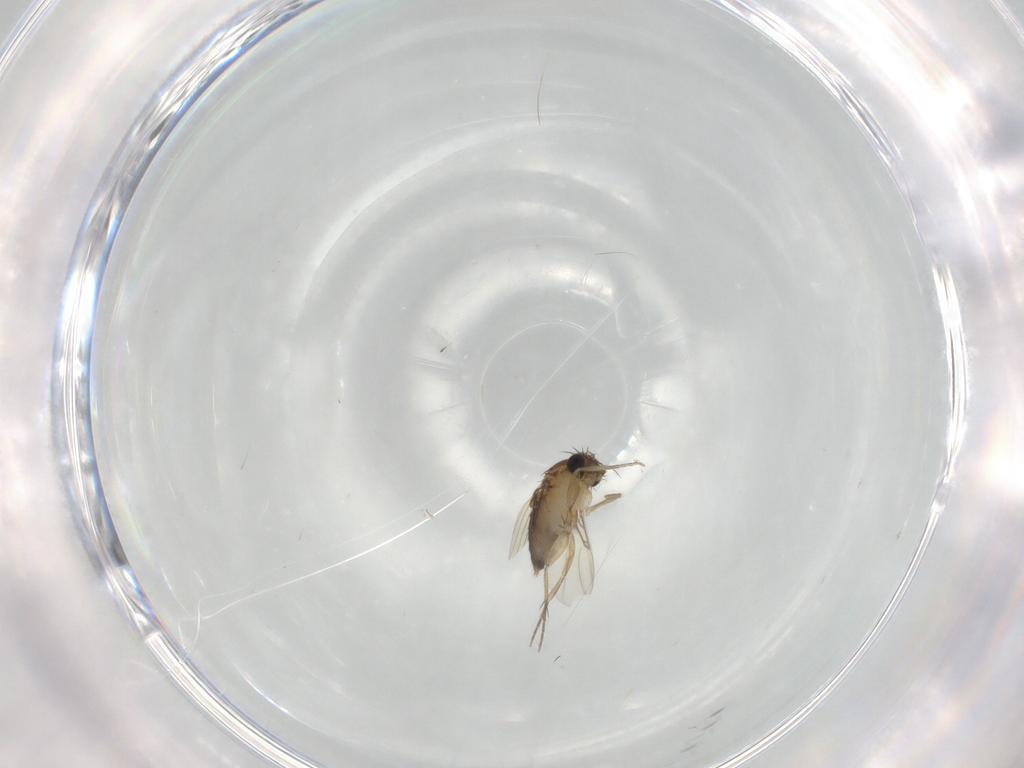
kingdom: Animalia
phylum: Arthropoda
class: Insecta
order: Diptera
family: Phoridae
